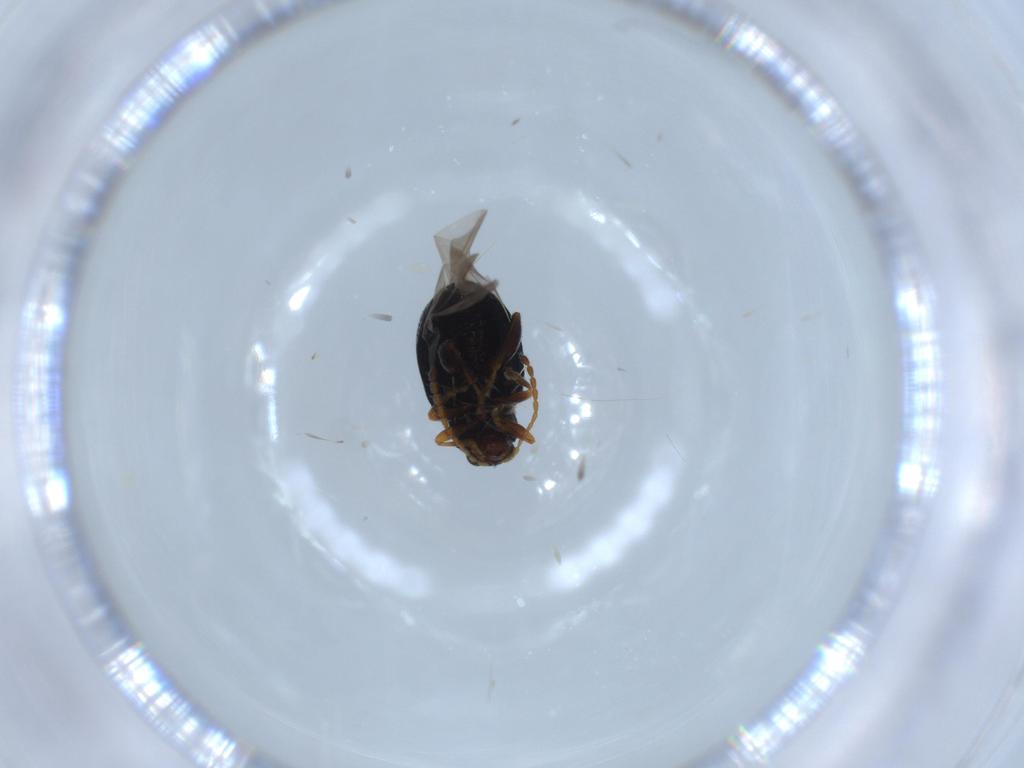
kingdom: Animalia
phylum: Arthropoda
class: Insecta
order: Coleoptera
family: Chrysomelidae
